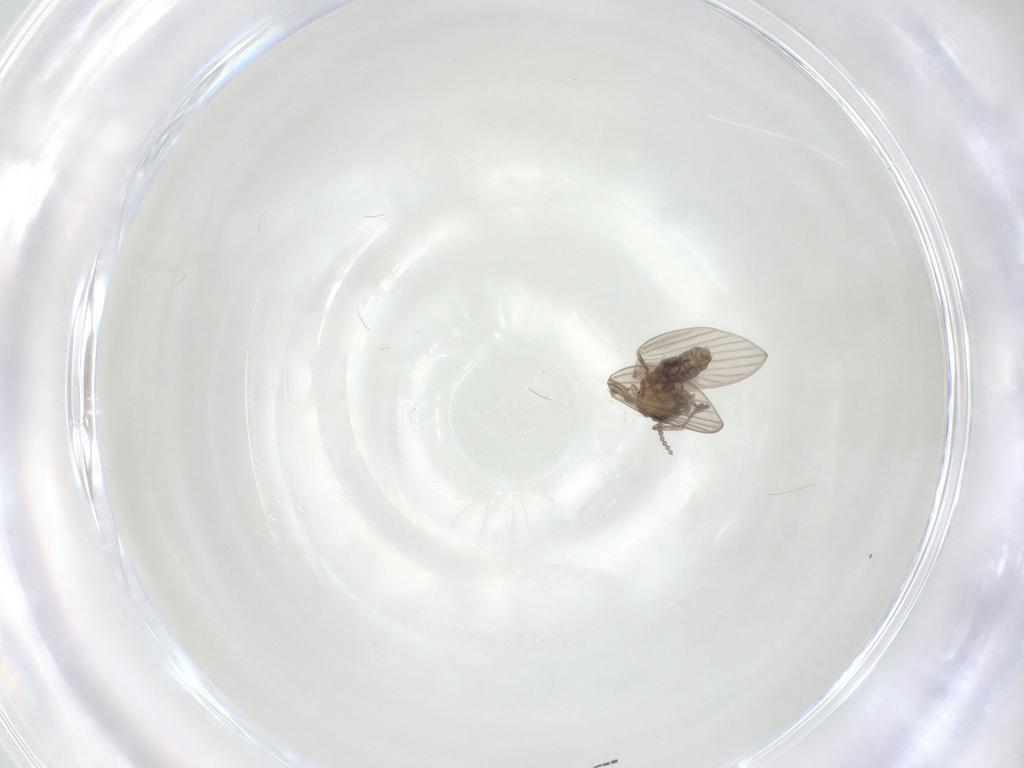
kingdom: Animalia
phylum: Arthropoda
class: Insecta
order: Diptera
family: Psychodidae
